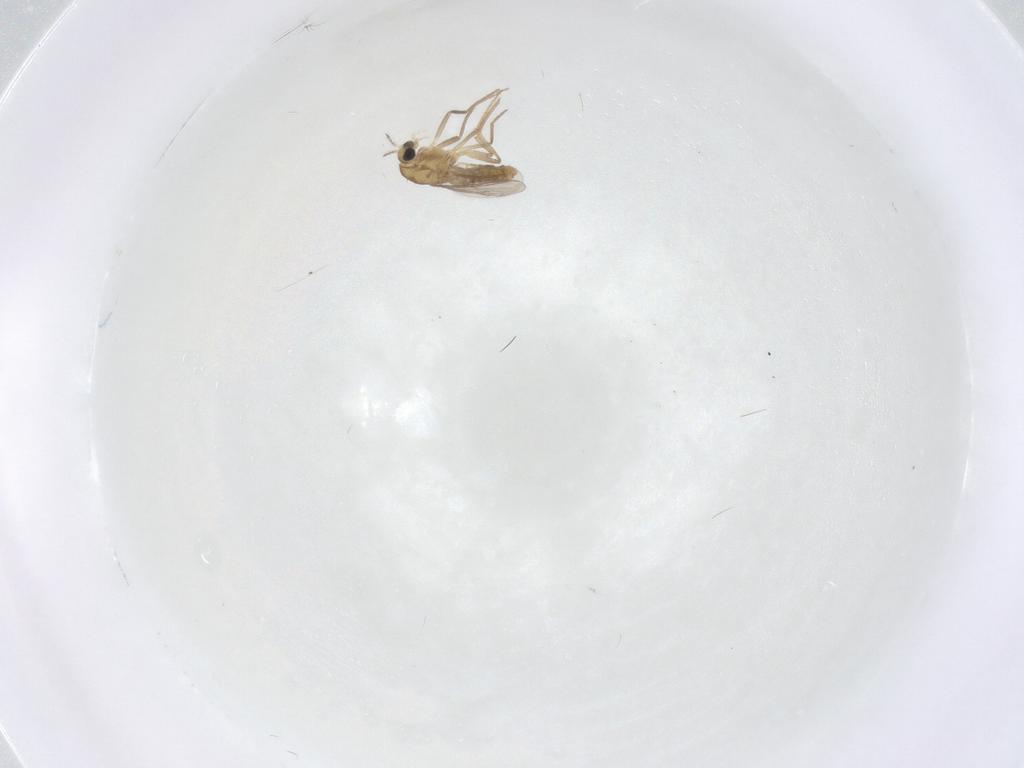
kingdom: Animalia
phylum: Arthropoda
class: Insecta
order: Diptera
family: Chironomidae
